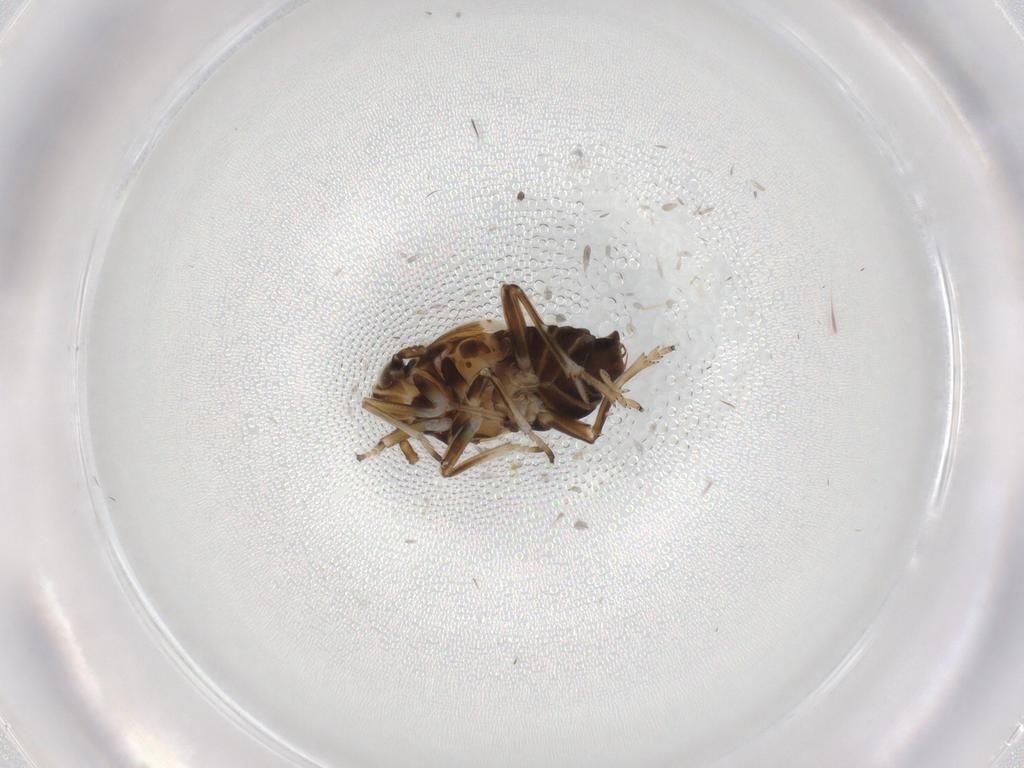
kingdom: Animalia
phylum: Arthropoda
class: Insecta
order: Hemiptera
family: Delphacidae
